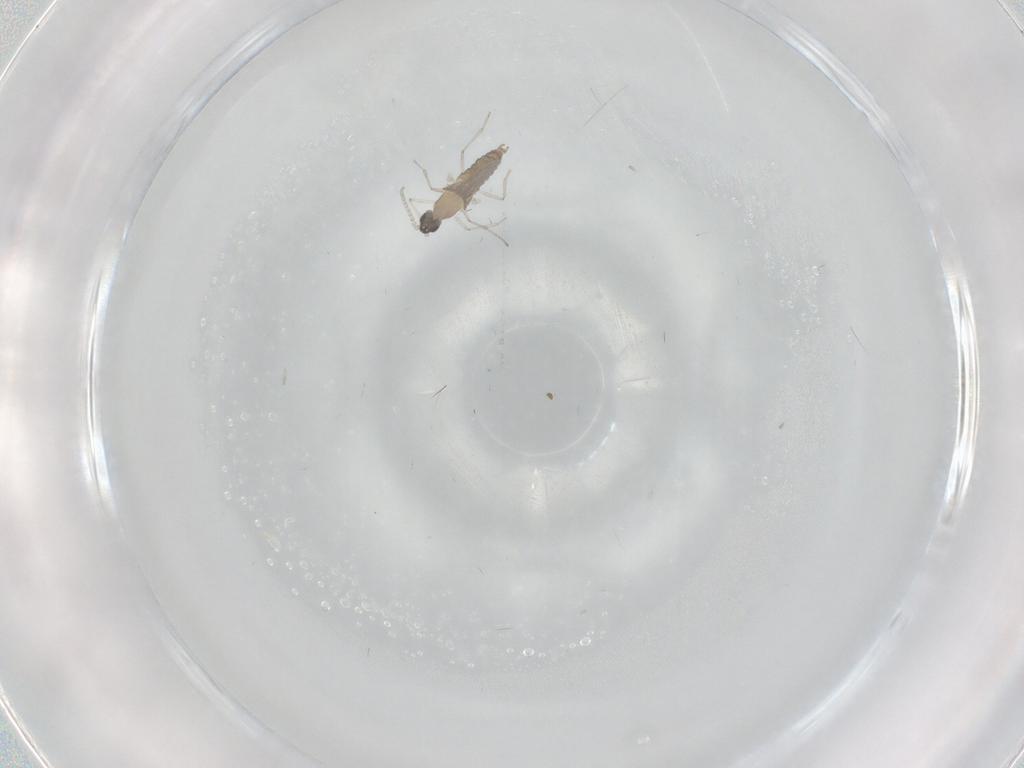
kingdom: Animalia
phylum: Arthropoda
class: Insecta
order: Diptera
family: Cecidomyiidae
